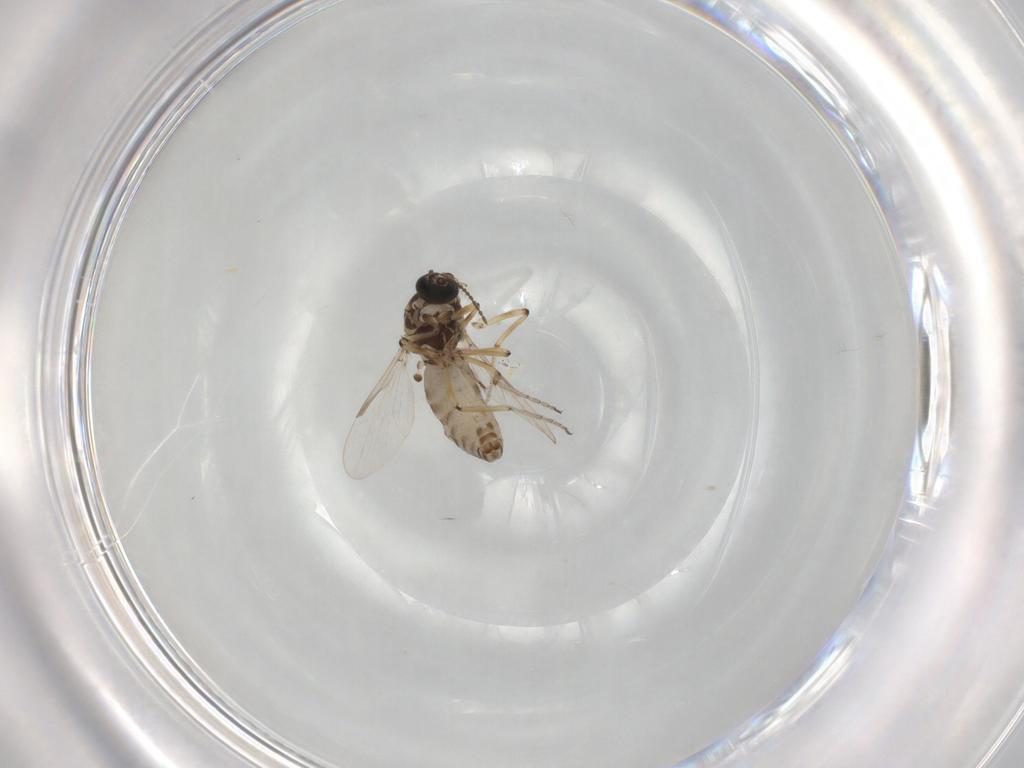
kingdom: Animalia
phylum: Arthropoda
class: Insecta
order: Diptera
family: Ceratopogonidae
